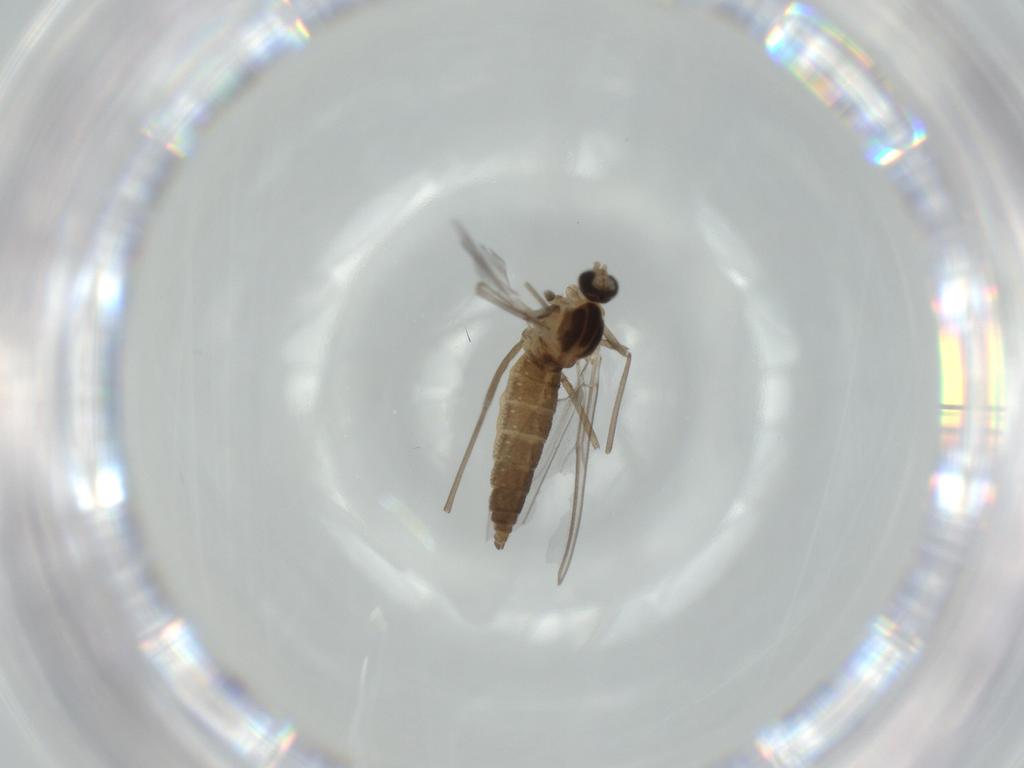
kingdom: Animalia
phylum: Arthropoda
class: Insecta
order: Diptera
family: Cecidomyiidae
